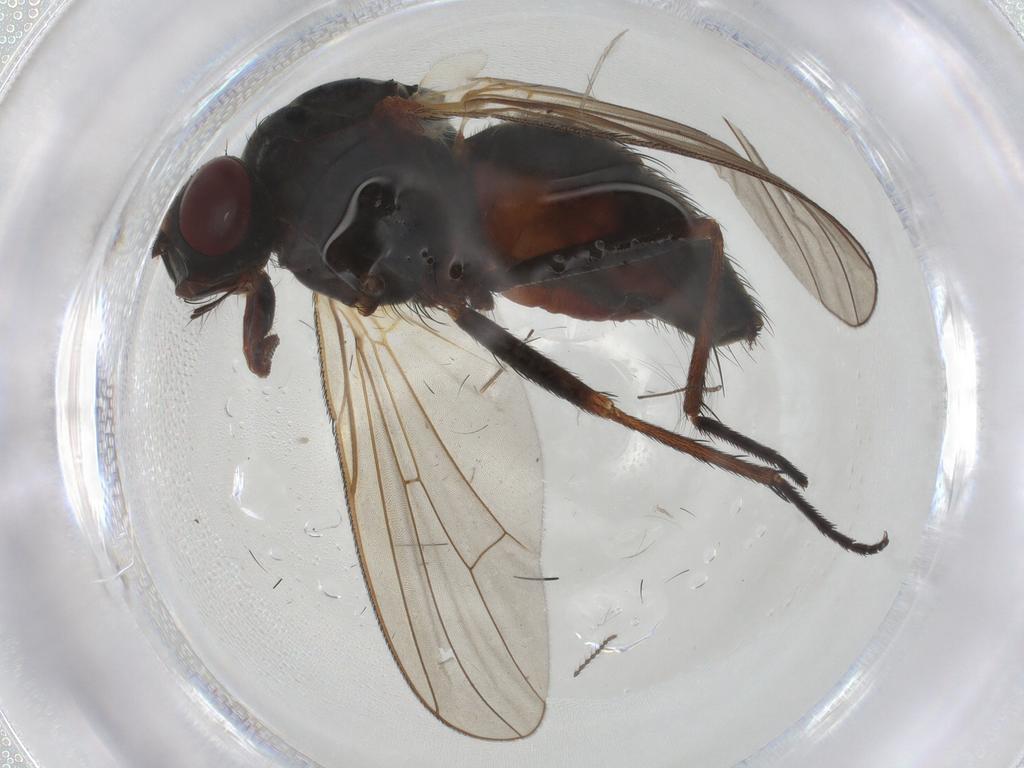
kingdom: Animalia
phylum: Arthropoda
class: Insecta
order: Diptera
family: Anthomyiidae
